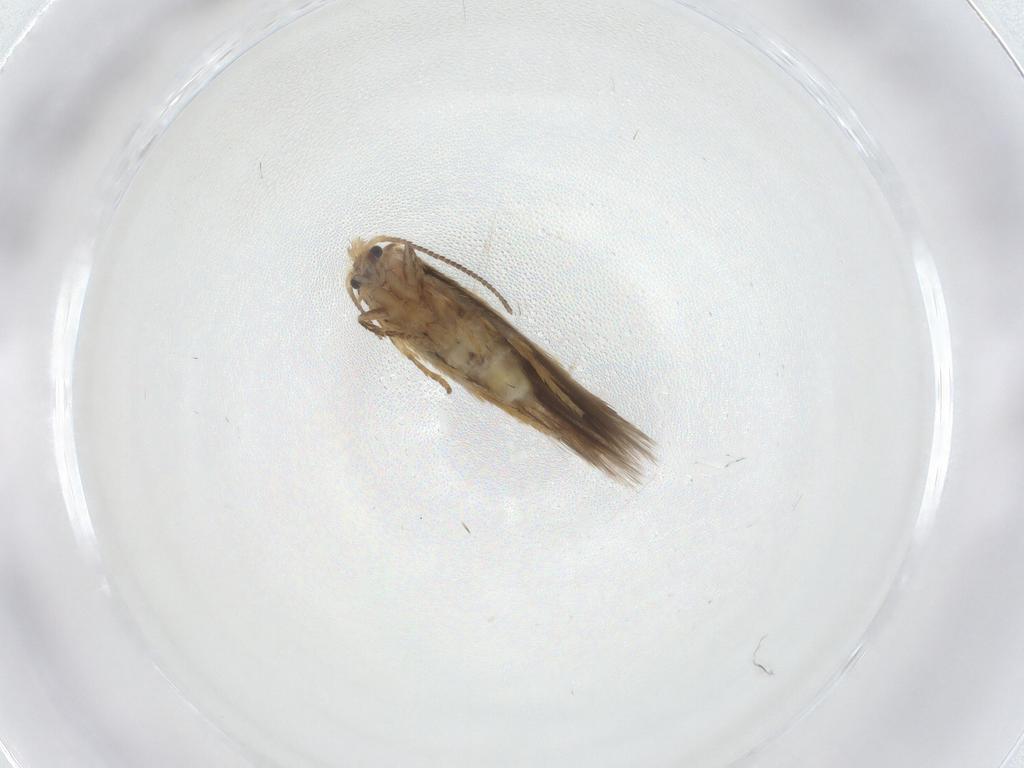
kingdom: Animalia
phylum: Arthropoda
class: Insecta
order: Lepidoptera
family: Nepticulidae
